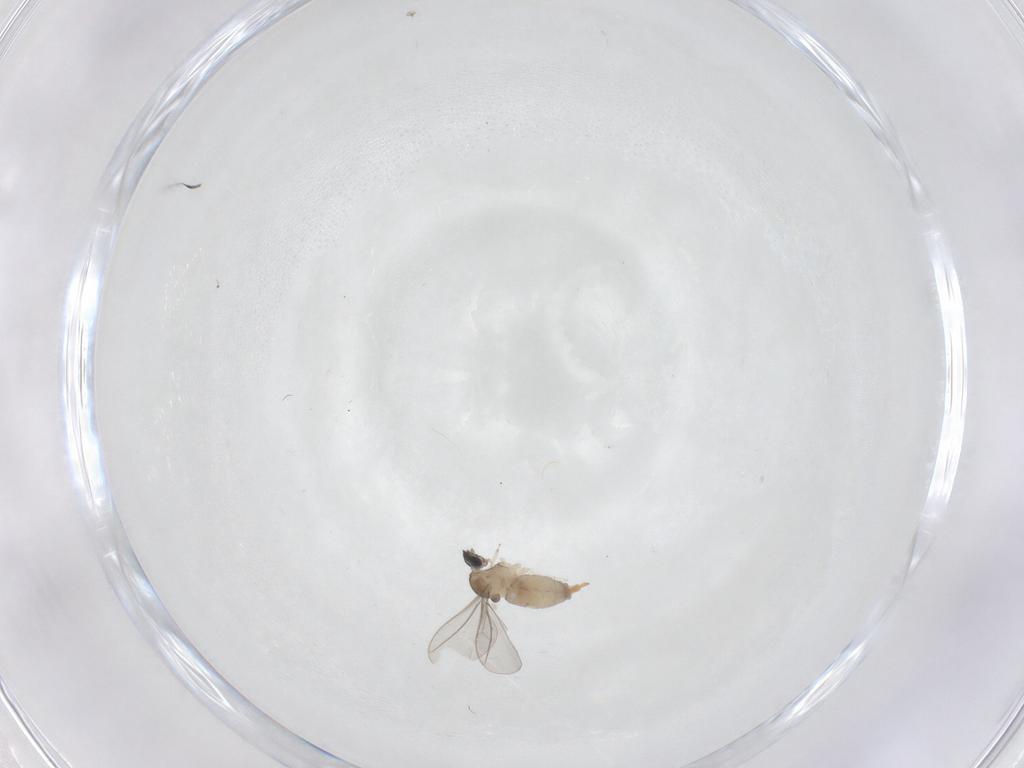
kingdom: Animalia
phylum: Arthropoda
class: Insecta
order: Diptera
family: Cecidomyiidae
